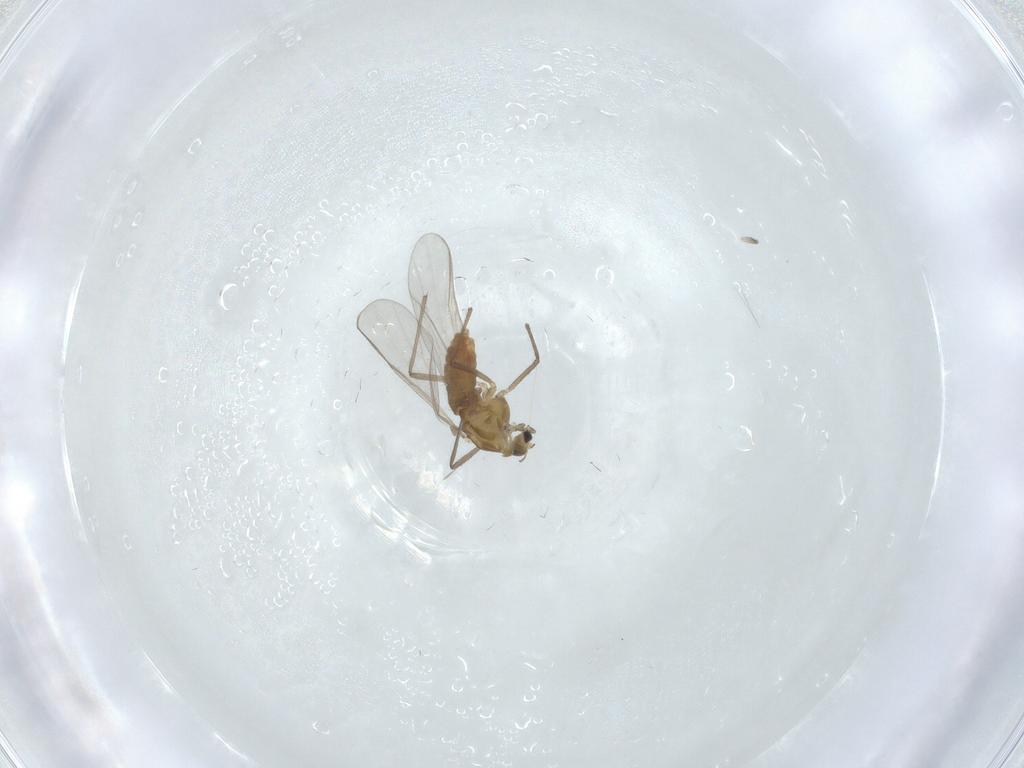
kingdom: Animalia
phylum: Arthropoda
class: Insecta
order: Diptera
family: Chironomidae
